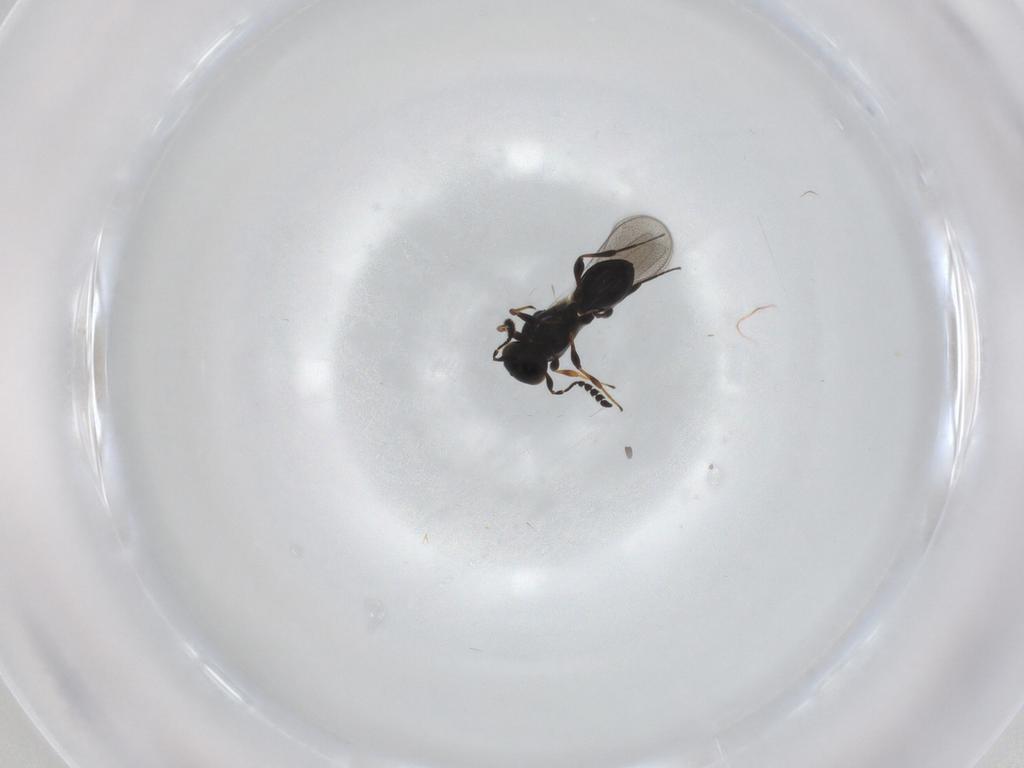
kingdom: Animalia
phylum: Arthropoda
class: Insecta
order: Hymenoptera
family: Platygastridae
